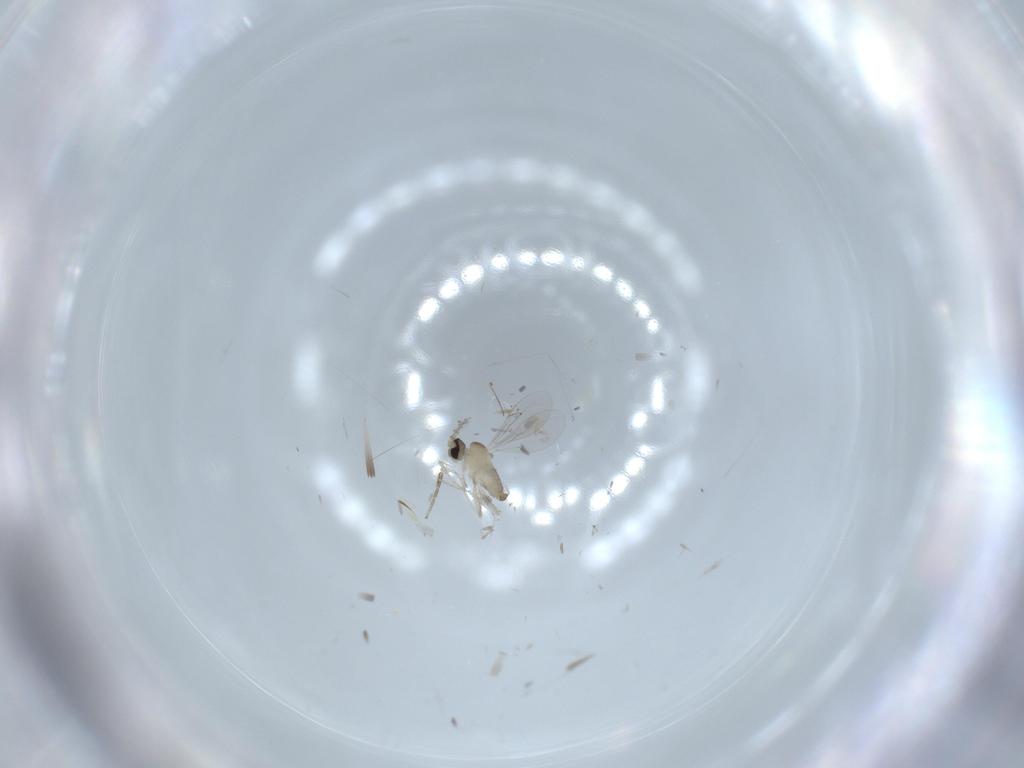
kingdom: Animalia
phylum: Arthropoda
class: Insecta
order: Diptera
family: Cecidomyiidae
